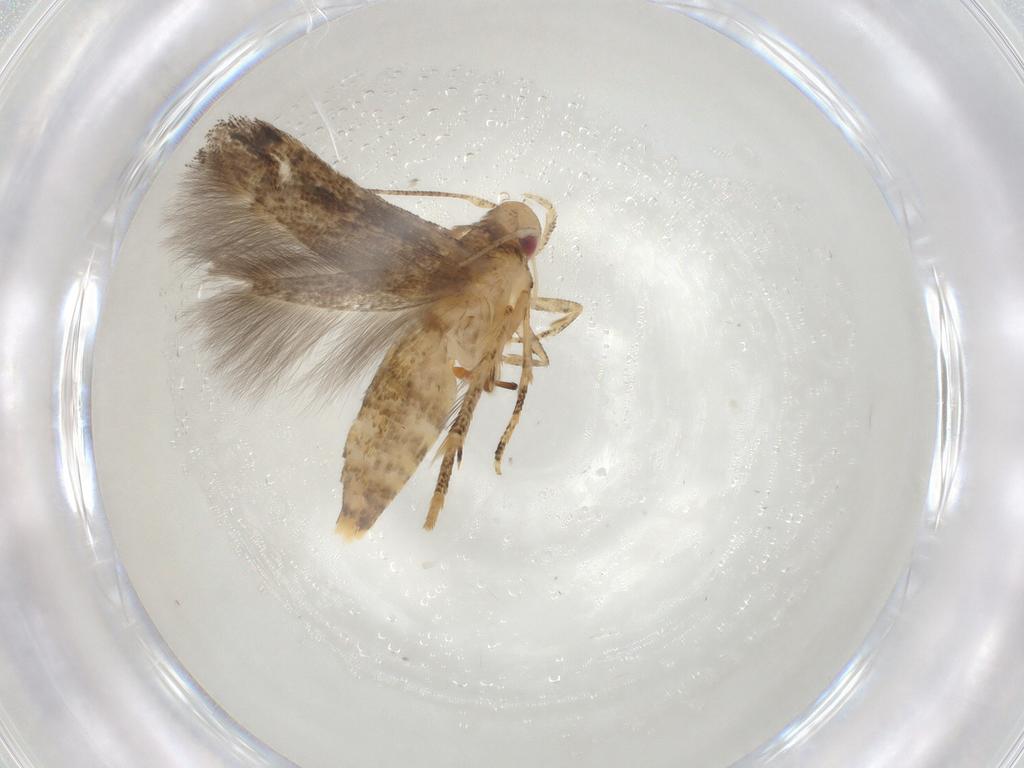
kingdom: Animalia
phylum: Arthropoda
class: Insecta
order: Lepidoptera
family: Tineidae
